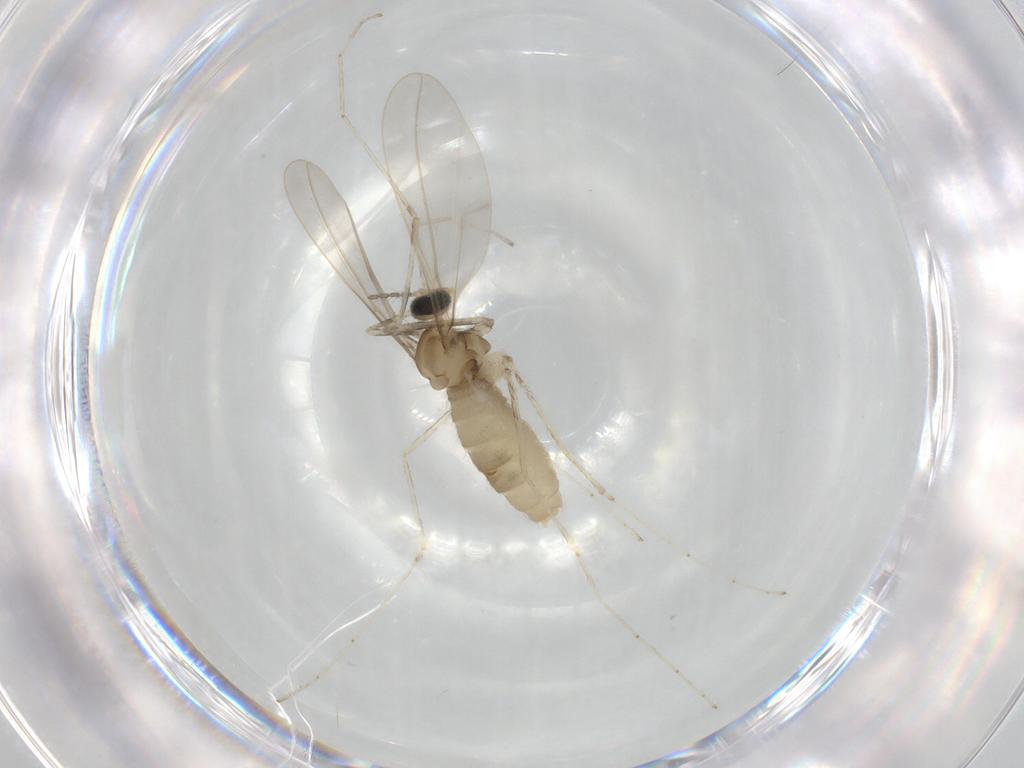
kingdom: Animalia
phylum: Arthropoda
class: Insecta
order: Diptera
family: Cecidomyiidae
